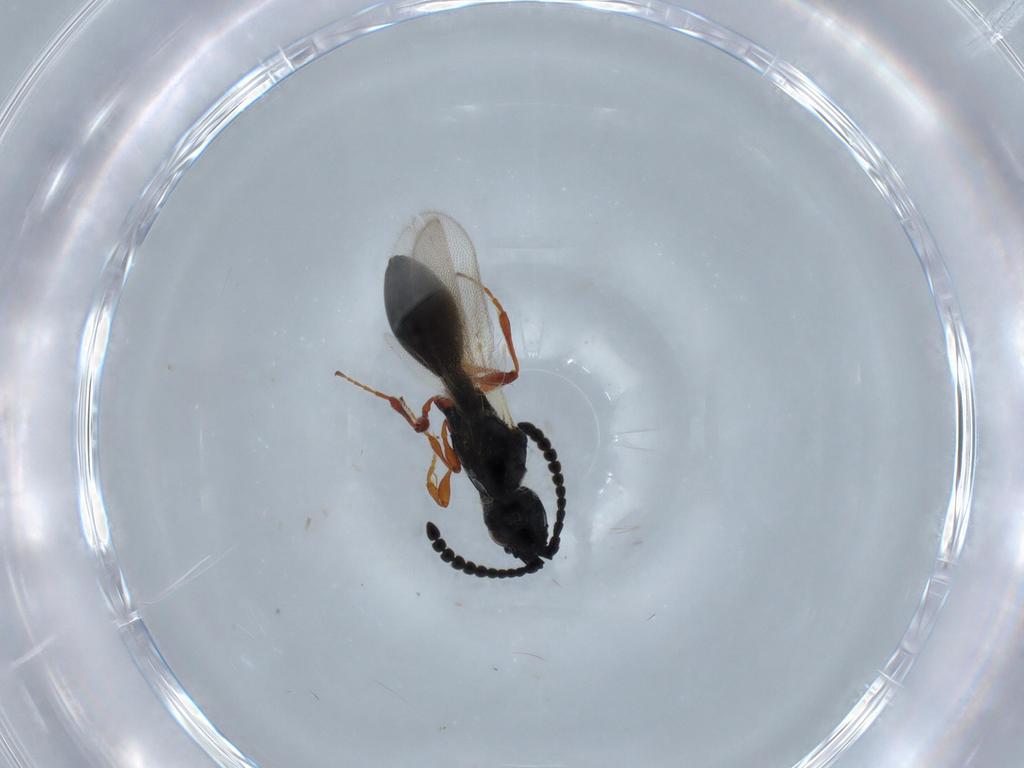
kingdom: Animalia
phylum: Arthropoda
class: Insecta
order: Hymenoptera
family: Diapriidae
